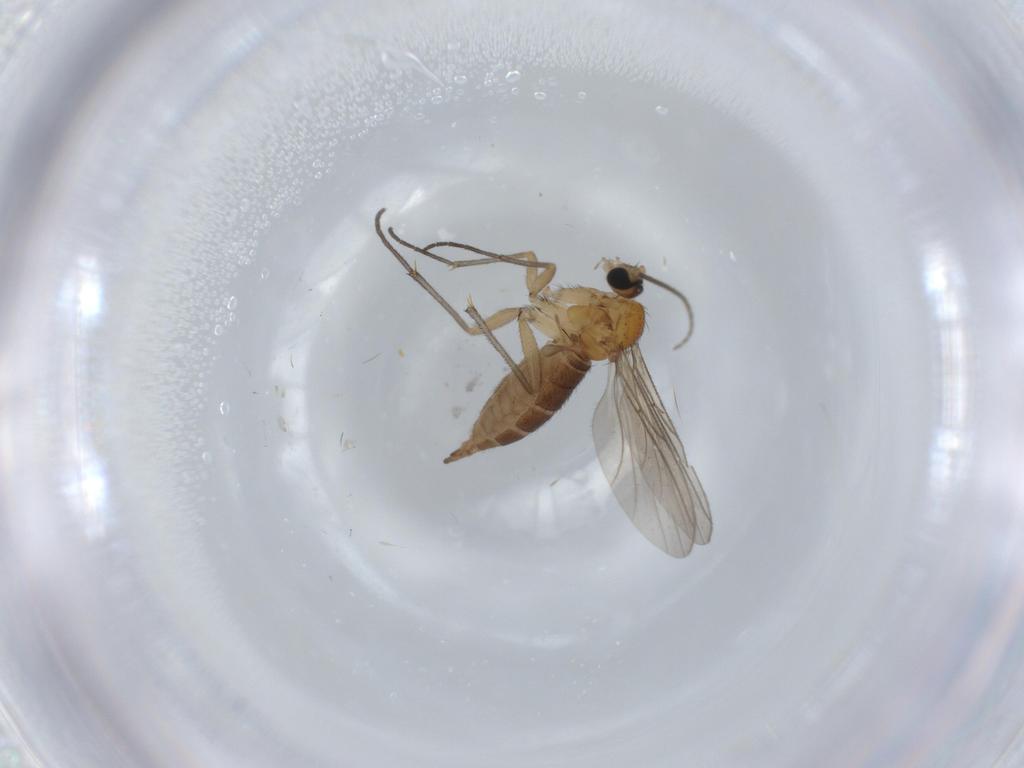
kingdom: Animalia
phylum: Arthropoda
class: Insecta
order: Diptera
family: Sciaridae
